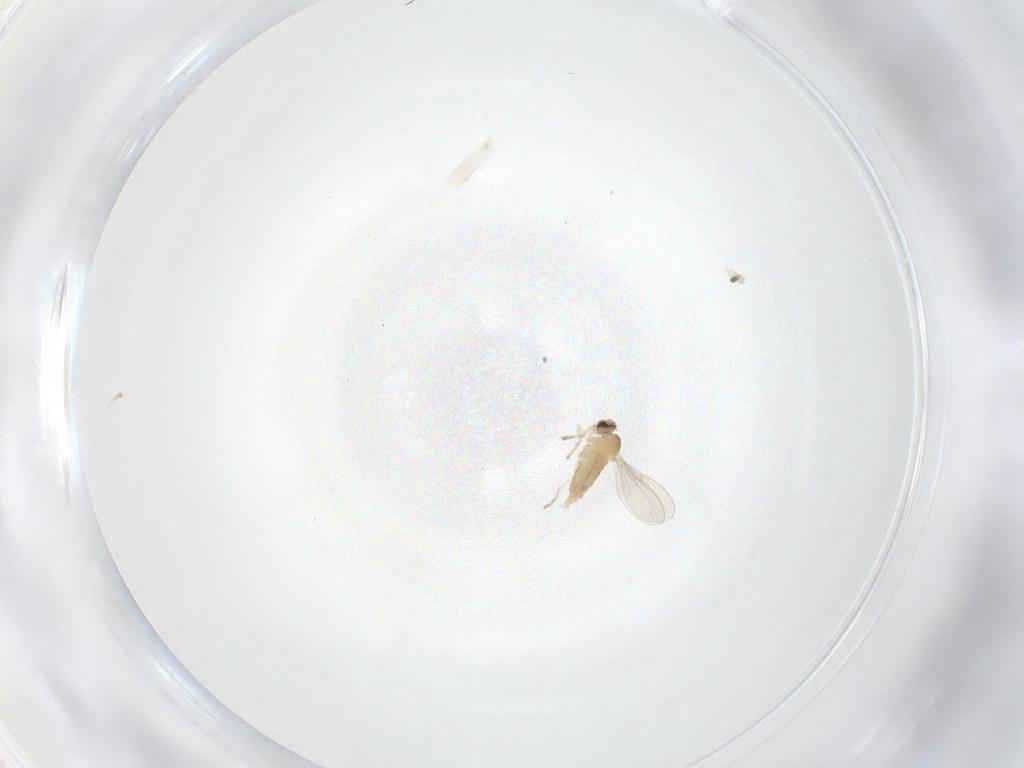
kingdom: Animalia
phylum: Arthropoda
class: Insecta
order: Diptera
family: Cecidomyiidae
